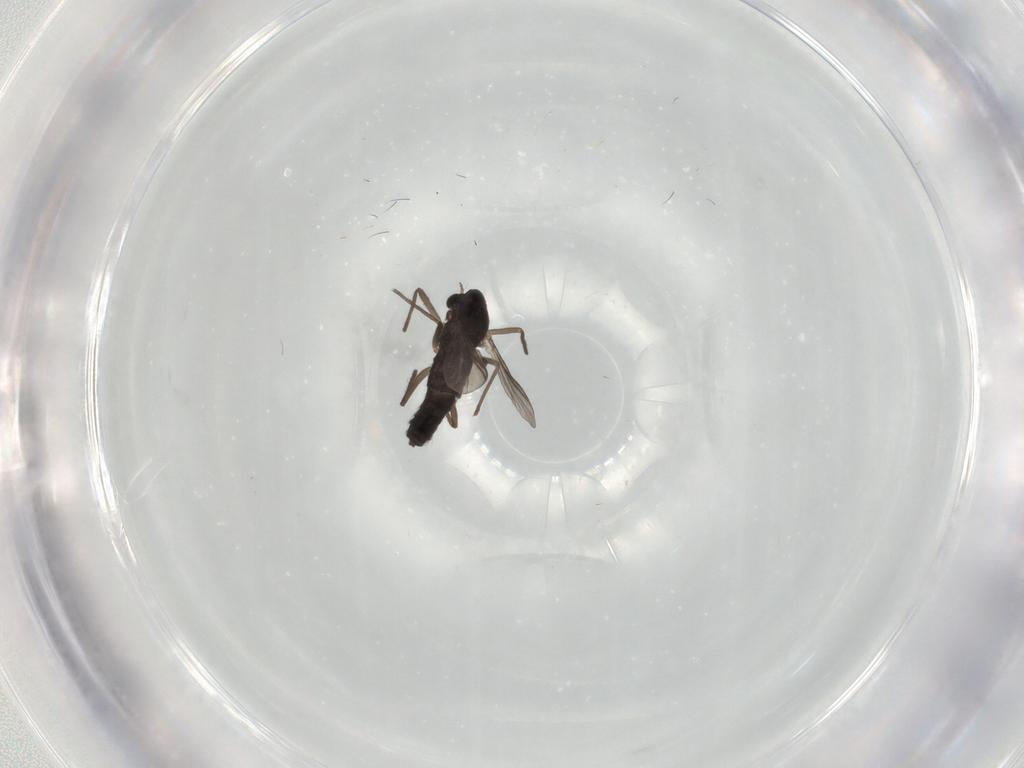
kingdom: Animalia
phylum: Arthropoda
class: Insecta
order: Diptera
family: Chironomidae
